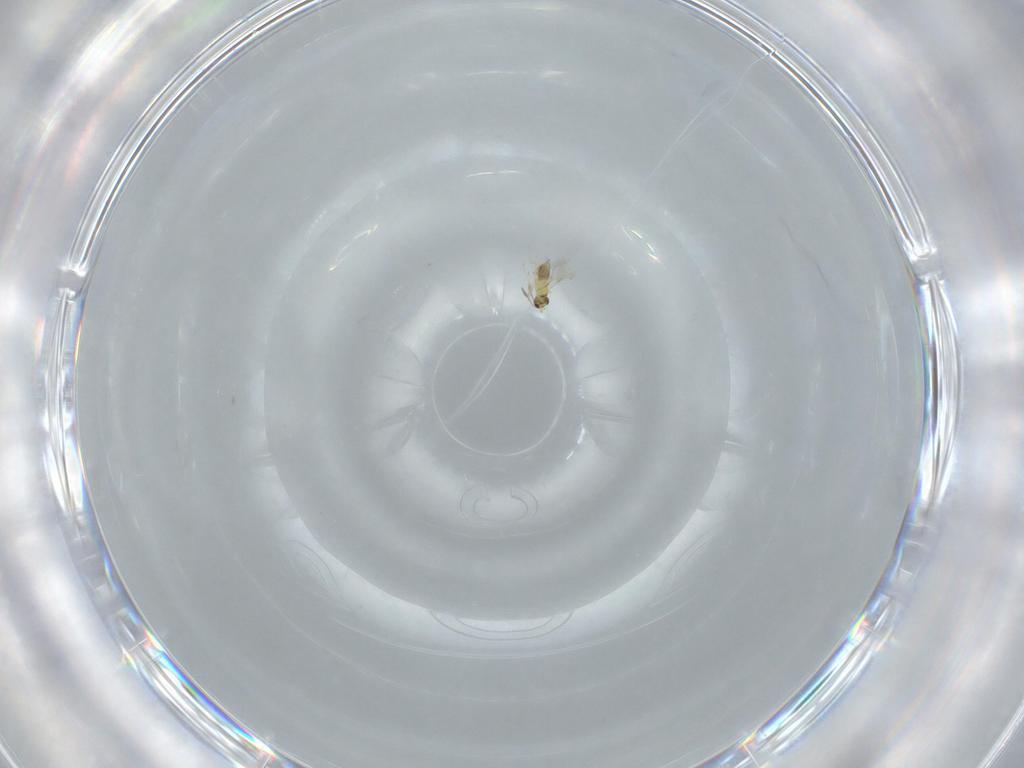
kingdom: Animalia
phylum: Arthropoda
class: Insecta
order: Hymenoptera
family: Mymaridae
